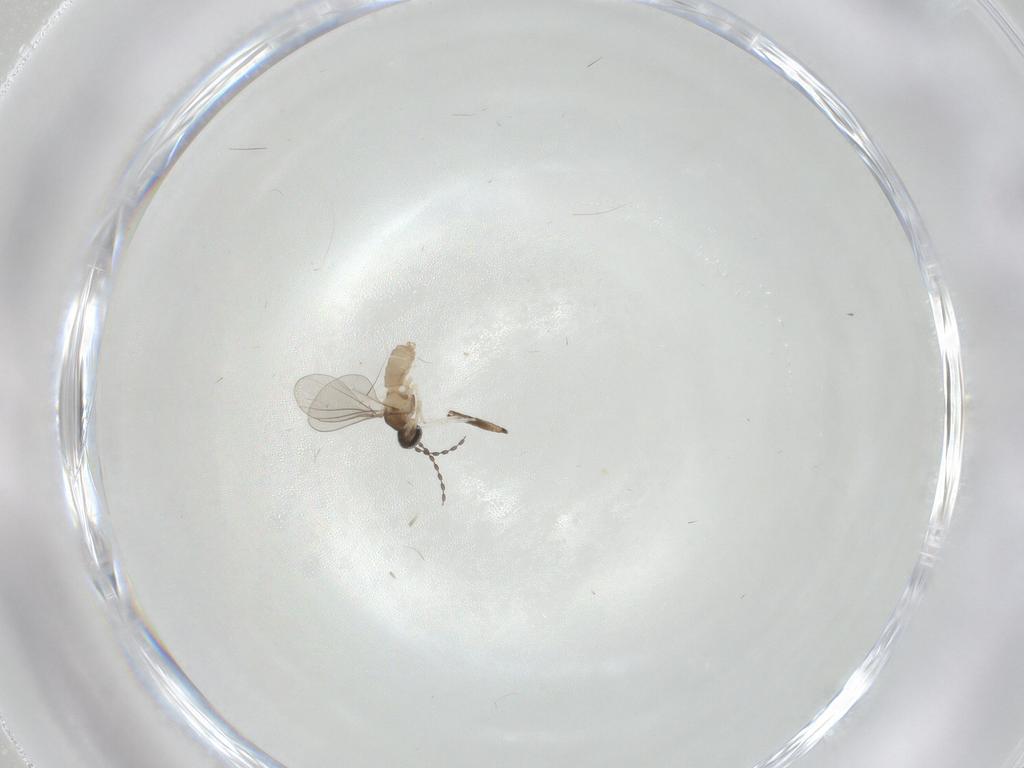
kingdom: Animalia
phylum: Arthropoda
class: Insecta
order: Diptera
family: Cecidomyiidae
